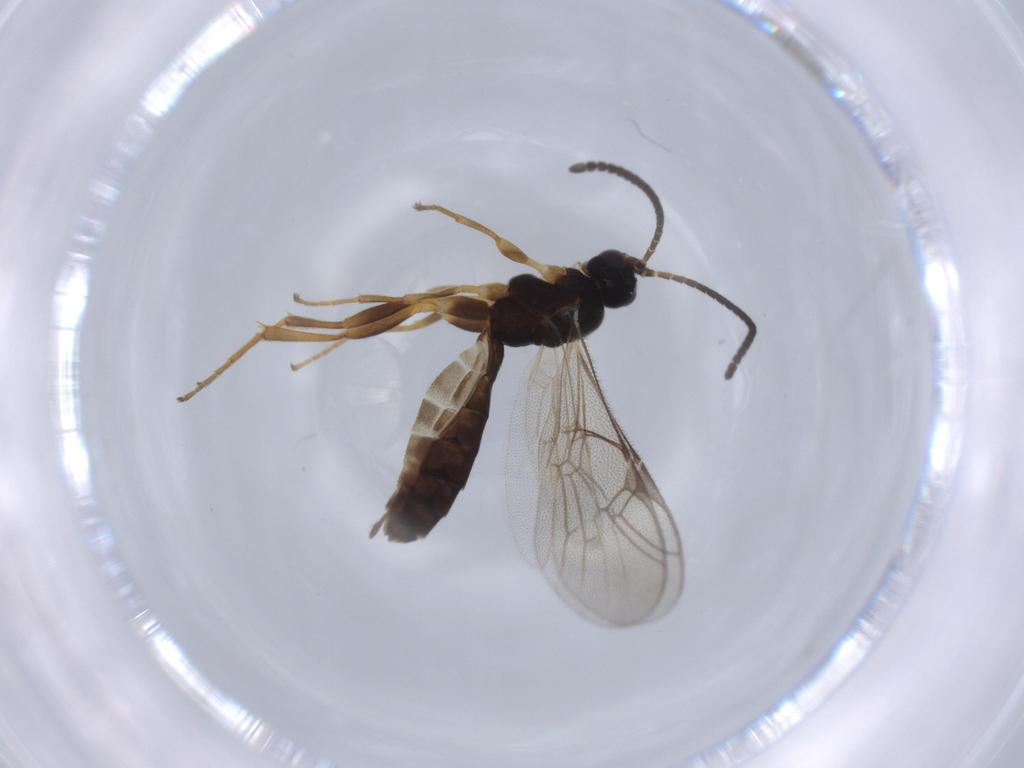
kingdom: Animalia
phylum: Arthropoda
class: Insecta
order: Hymenoptera
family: Ichneumonidae
